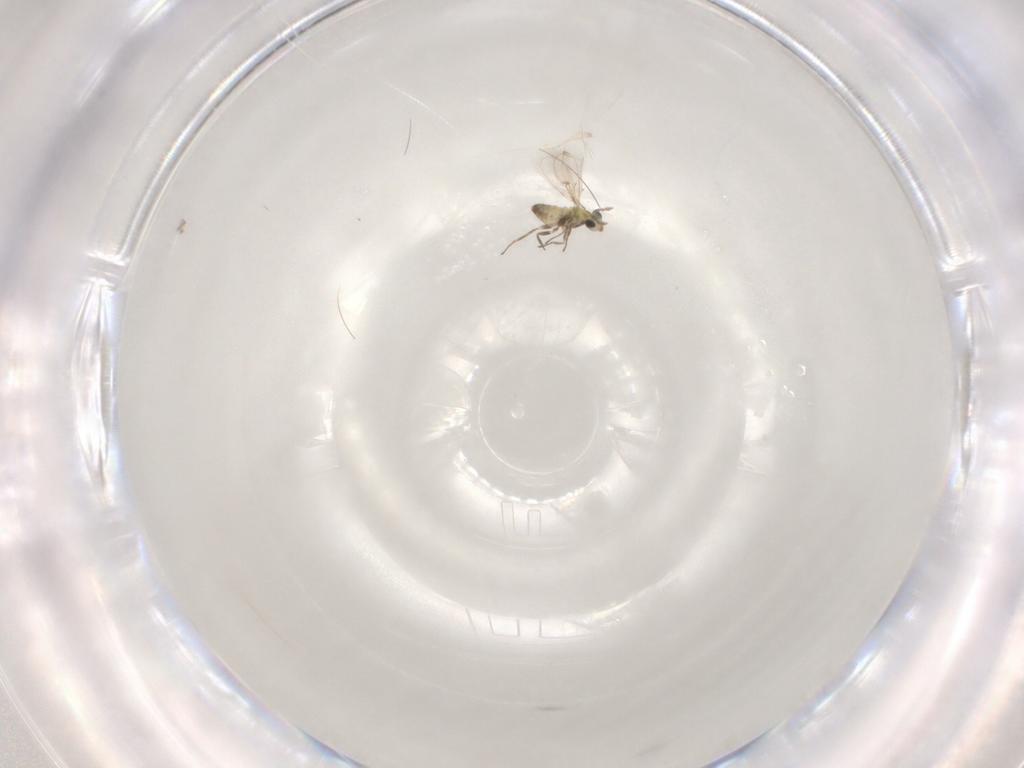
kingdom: Animalia
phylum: Arthropoda
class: Insecta
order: Hymenoptera
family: Trichogrammatidae
